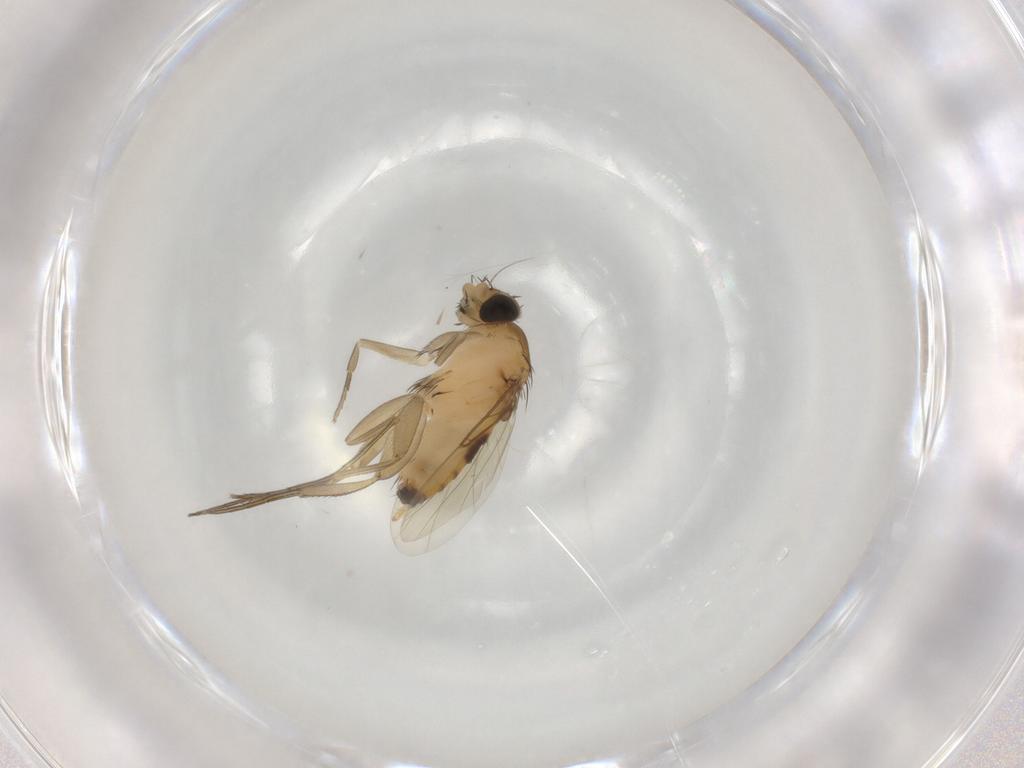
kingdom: Animalia
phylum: Arthropoda
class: Insecta
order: Diptera
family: Phoridae
